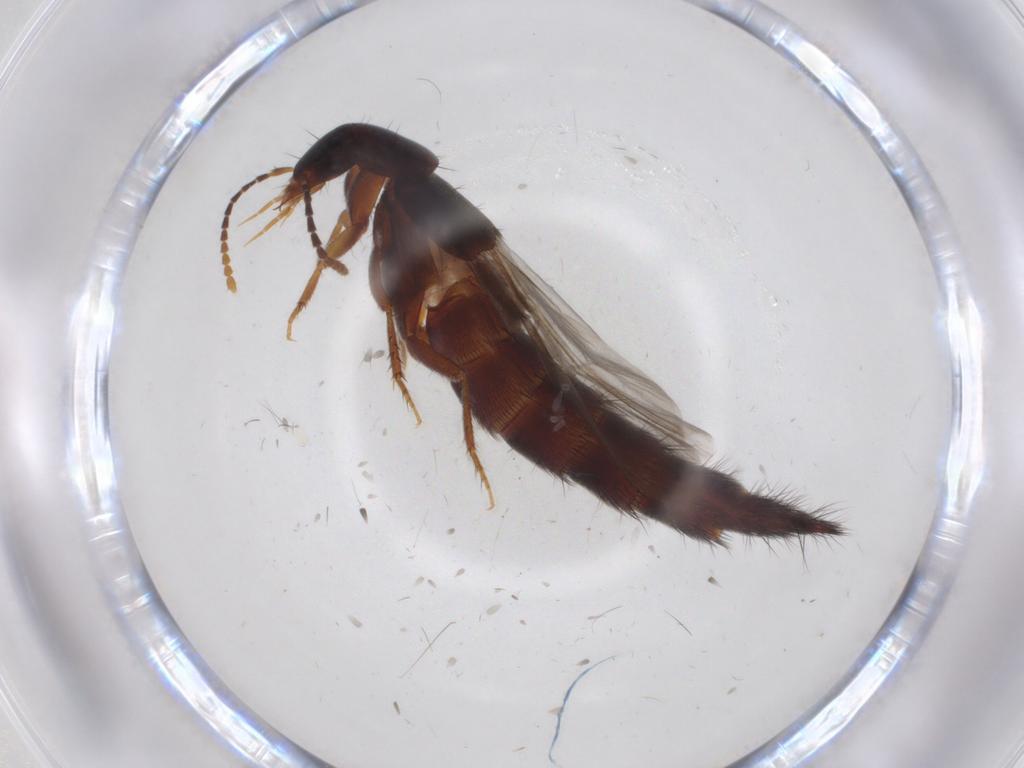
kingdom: Animalia
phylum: Arthropoda
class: Insecta
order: Coleoptera
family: Staphylinidae
